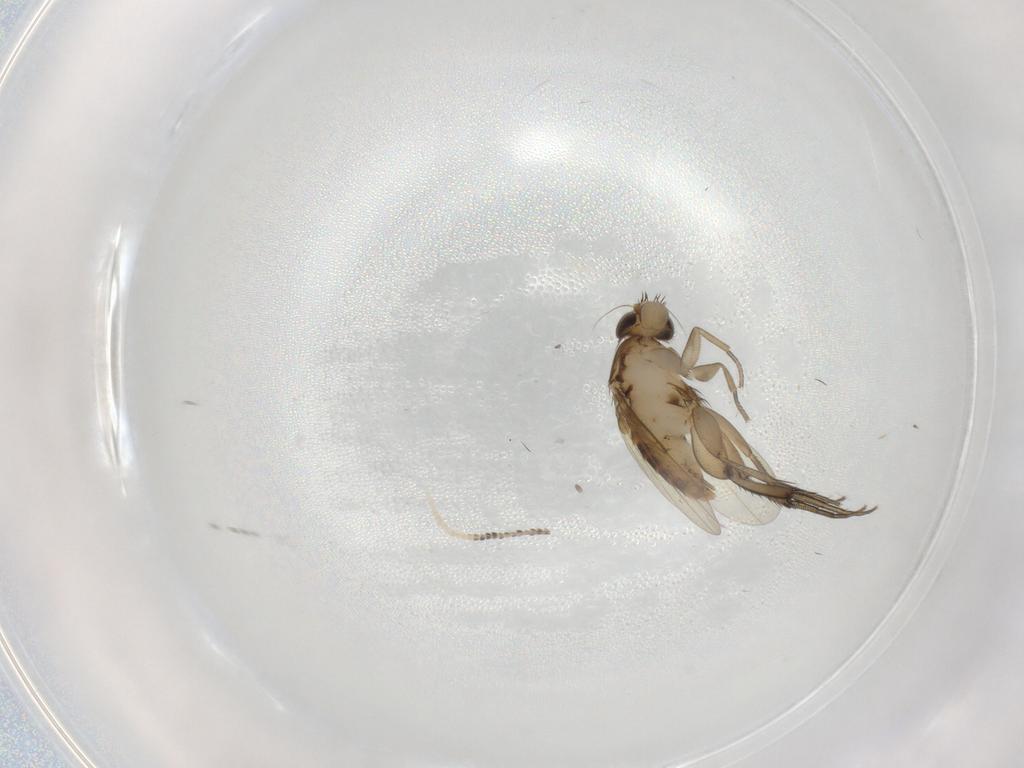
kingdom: Animalia
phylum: Arthropoda
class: Insecta
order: Diptera
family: Phoridae
